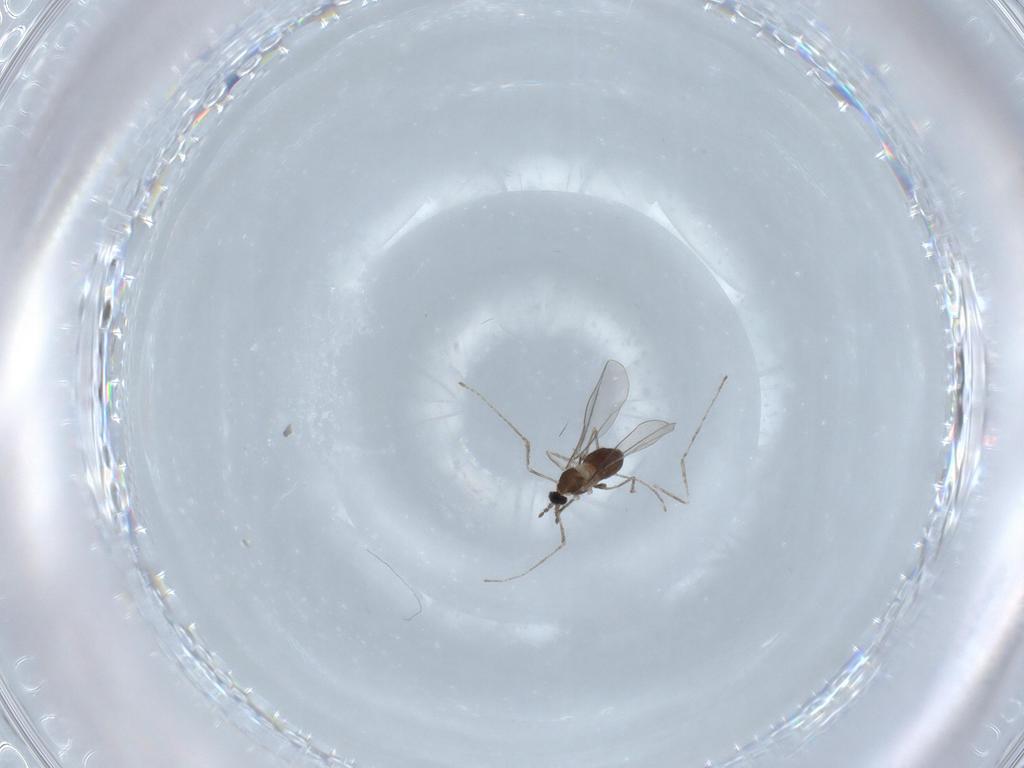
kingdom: Animalia
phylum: Arthropoda
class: Insecta
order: Diptera
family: Cecidomyiidae
